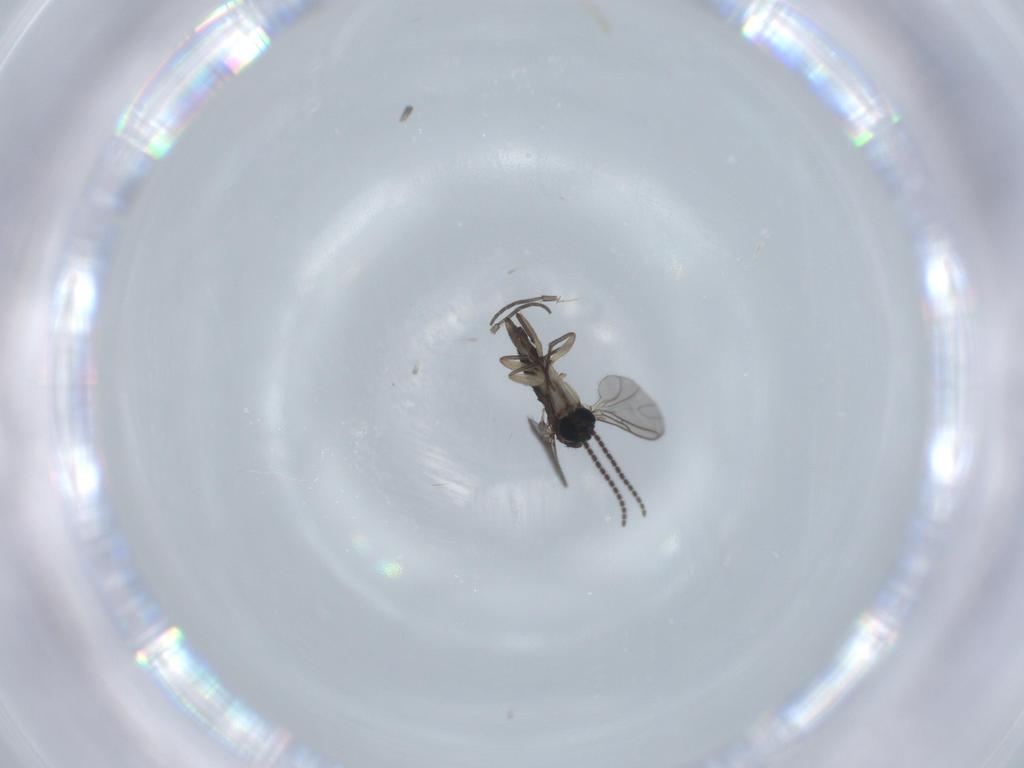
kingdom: Animalia
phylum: Arthropoda
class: Insecta
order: Diptera
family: Sciaridae
